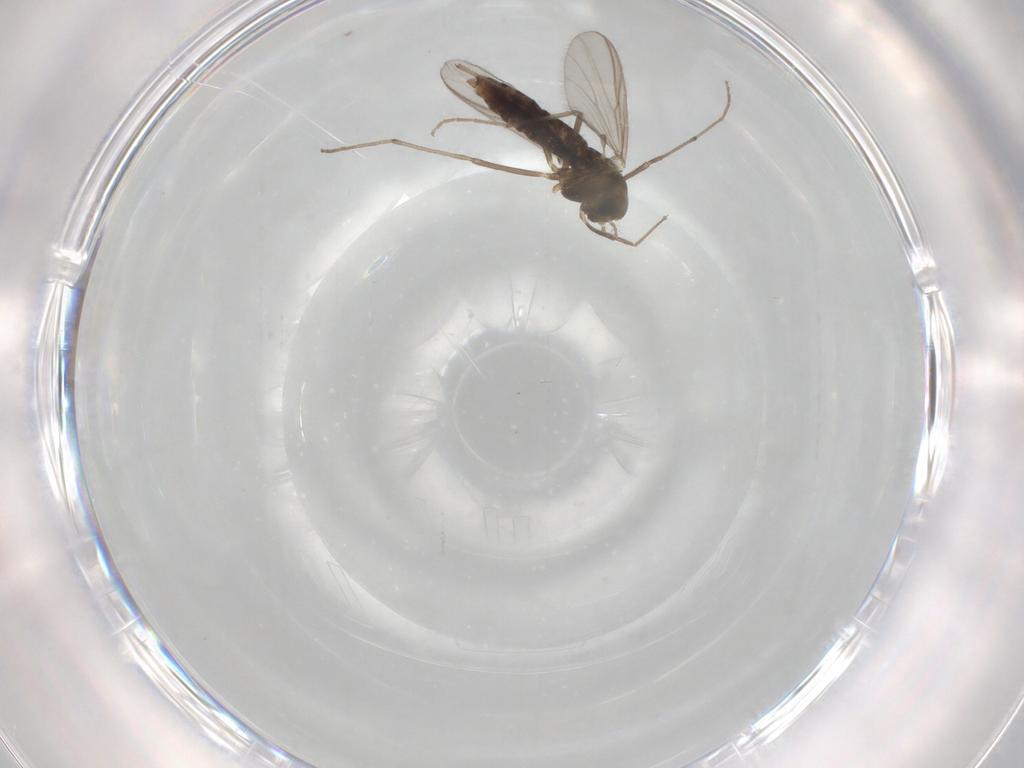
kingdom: Animalia
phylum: Arthropoda
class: Insecta
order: Diptera
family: Chironomidae
